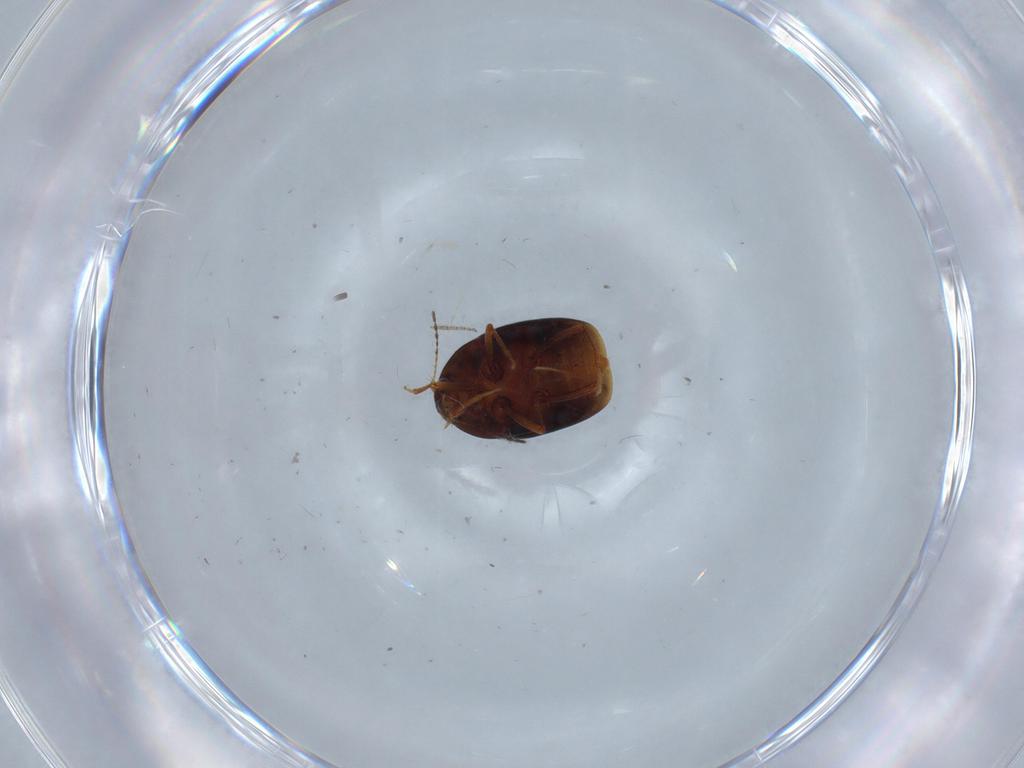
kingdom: Animalia
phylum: Arthropoda
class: Insecta
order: Coleoptera
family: Staphylinidae
